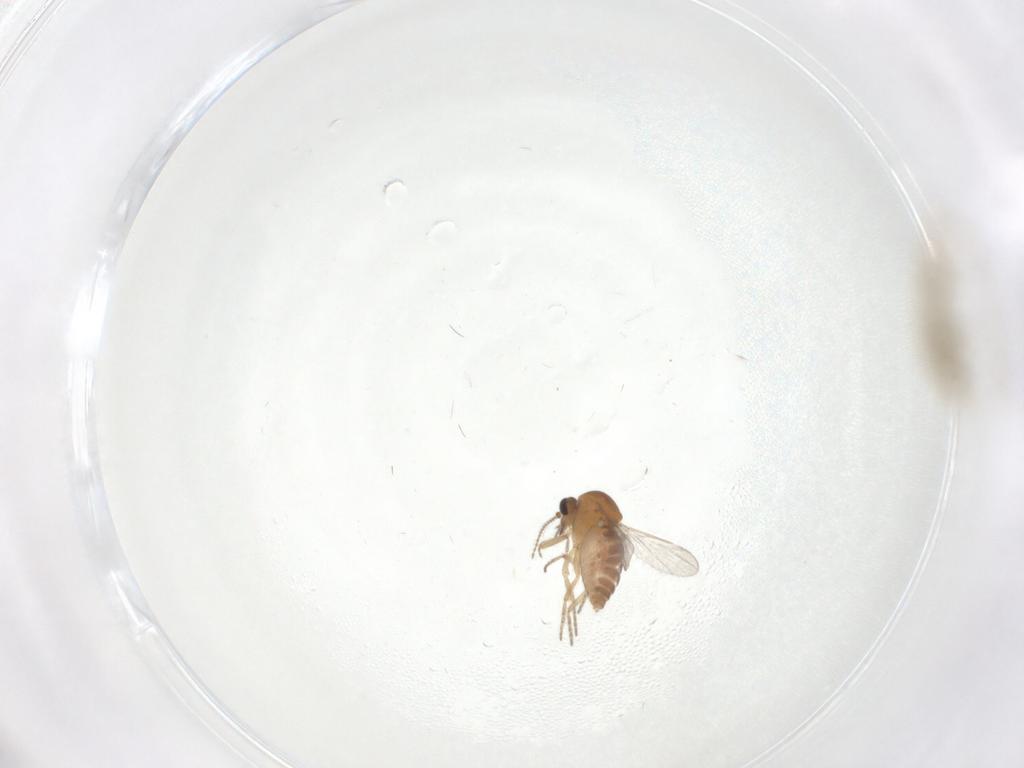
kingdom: Animalia
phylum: Arthropoda
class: Insecta
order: Diptera
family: Ceratopogonidae
